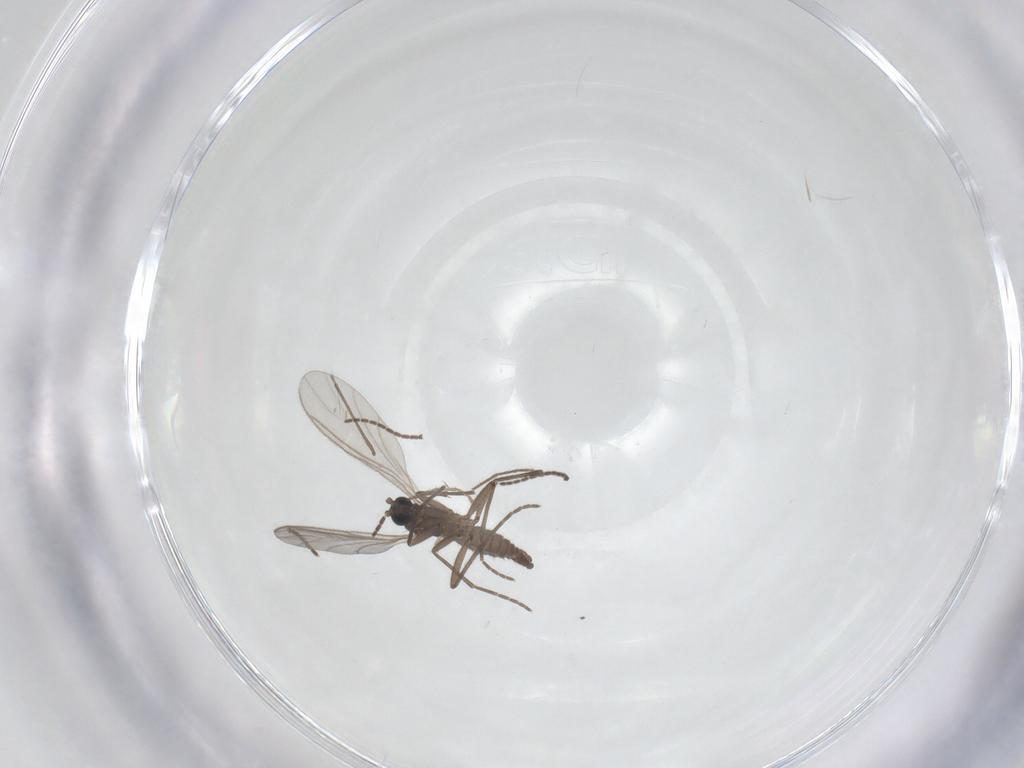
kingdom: Animalia
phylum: Arthropoda
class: Insecta
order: Diptera
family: Chironomidae
